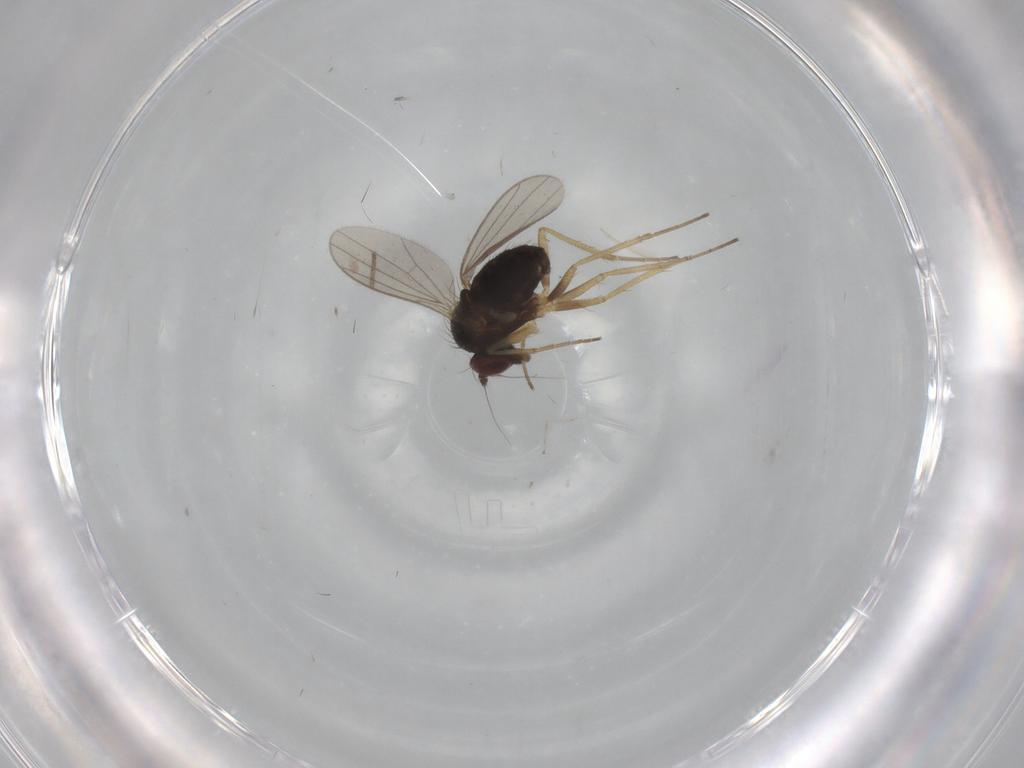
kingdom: Animalia
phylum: Arthropoda
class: Insecta
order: Diptera
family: Dolichopodidae
